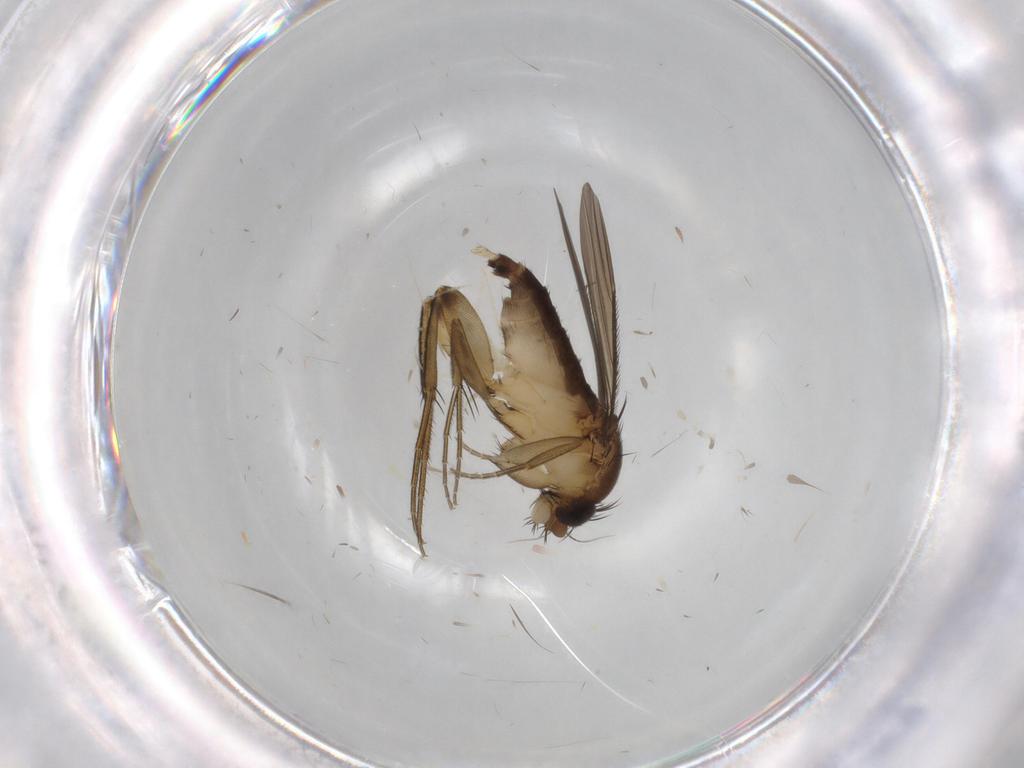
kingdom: Animalia
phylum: Arthropoda
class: Insecta
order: Diptera
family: Phoridae
